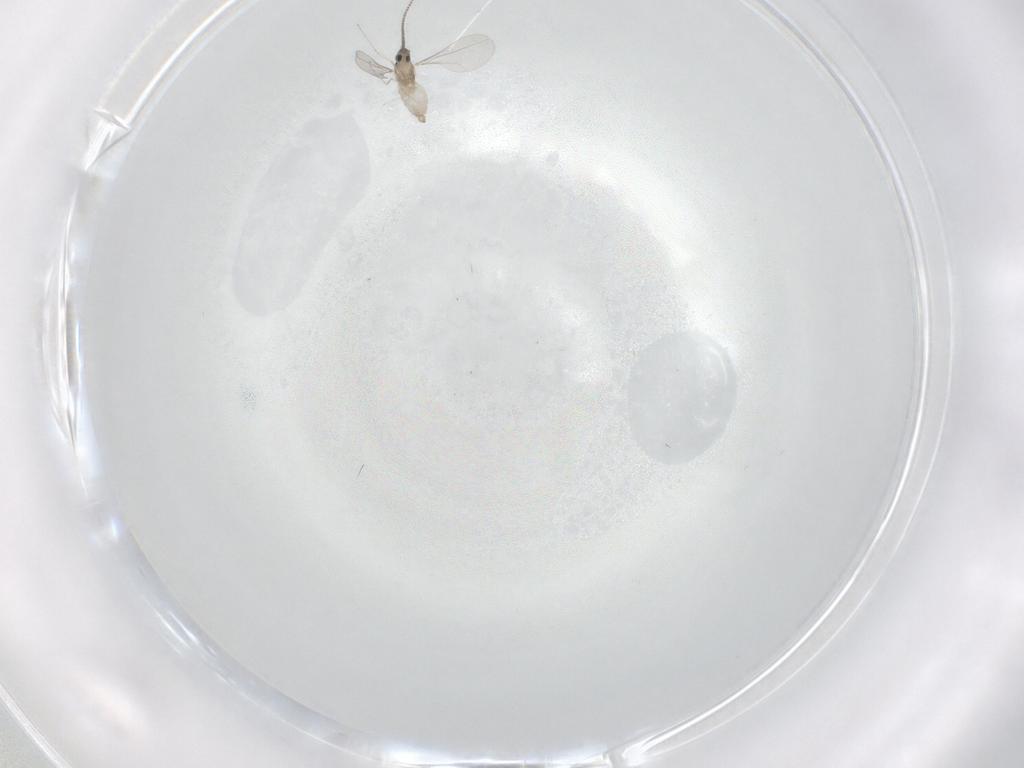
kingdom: Animalia
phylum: Arthropoda
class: Insecta
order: Diptera
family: Cecidomyiidae
